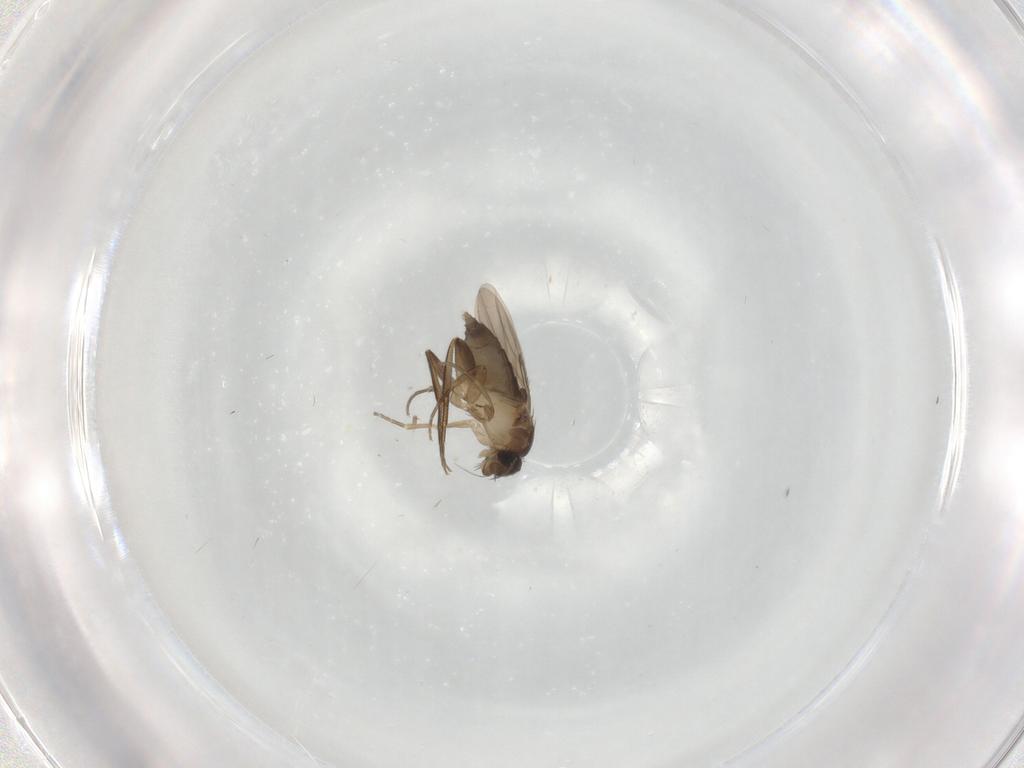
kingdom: Animalia
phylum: Arthropoda
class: Insecta
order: Diptera
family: Phoridae
